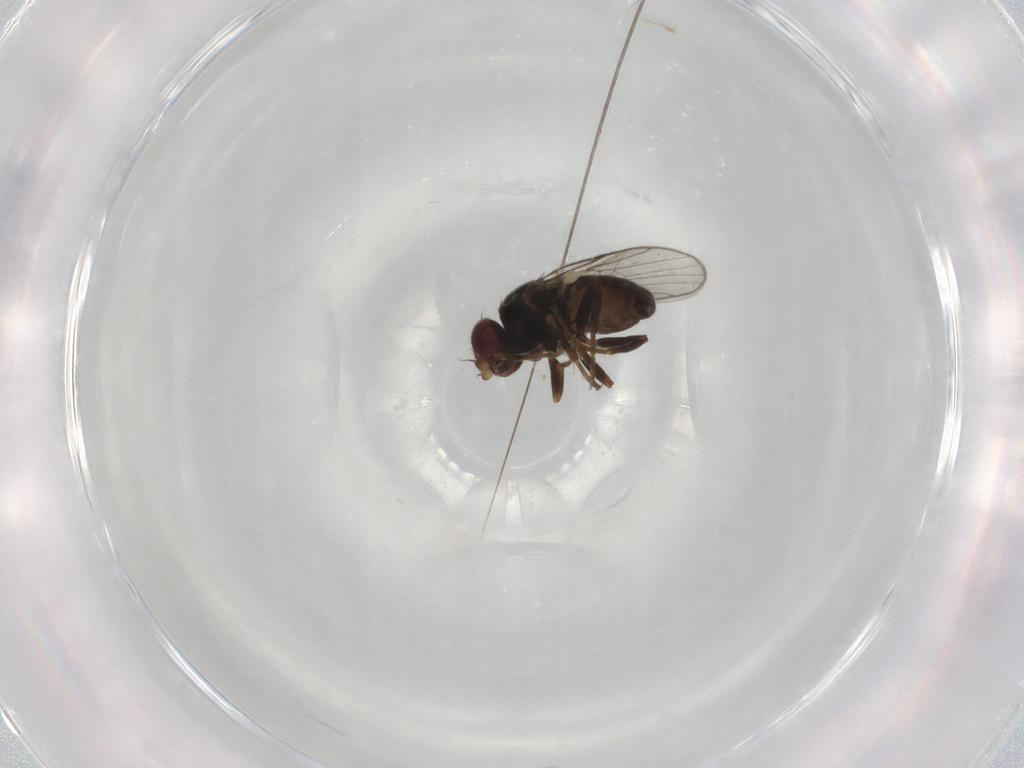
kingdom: Animalia
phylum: Arthropoda
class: Insecta
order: Diptera
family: Chloropidae
